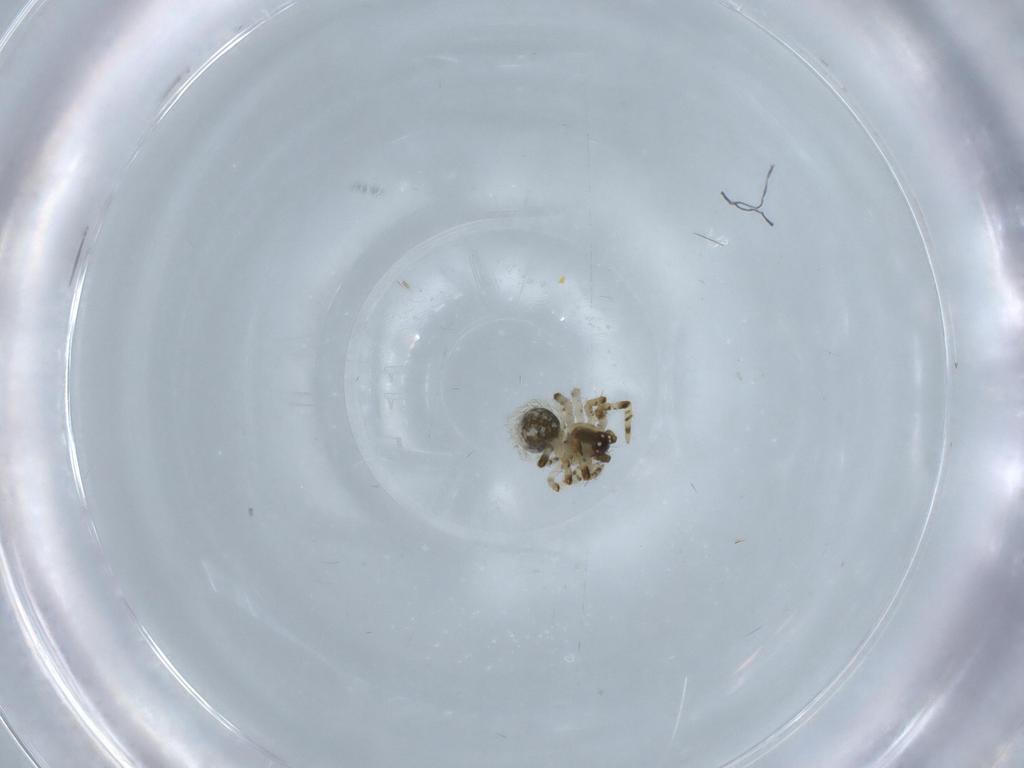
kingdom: Animalia
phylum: Arthropoda
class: Arachnida
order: Araneae
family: Theridiidae
